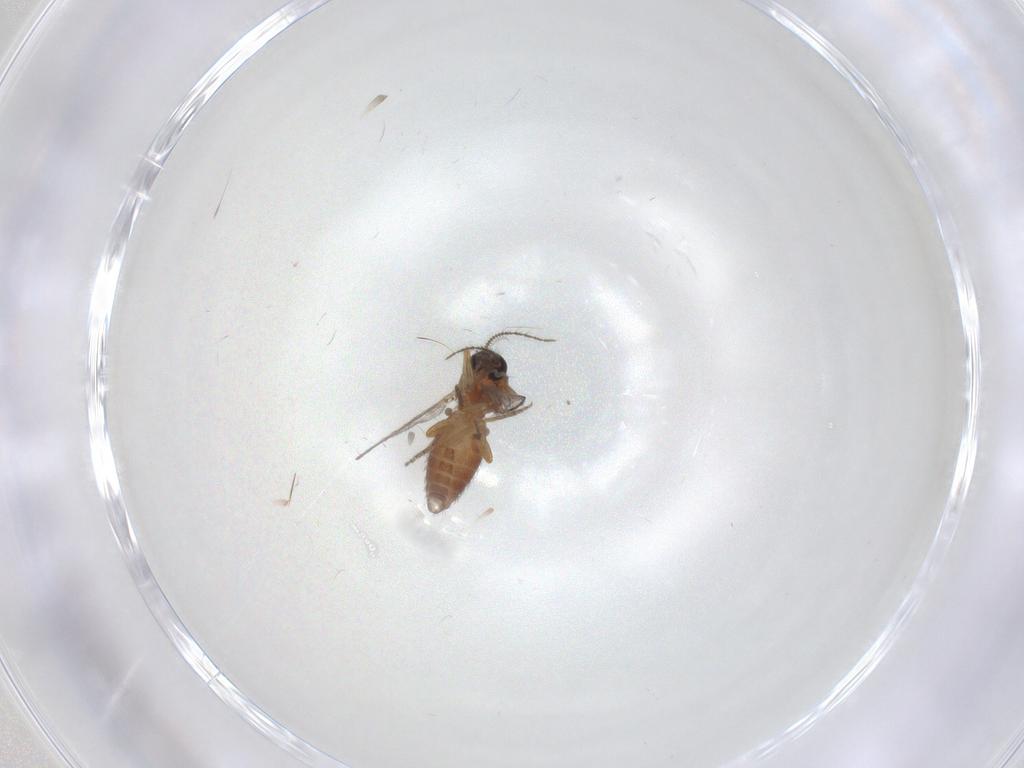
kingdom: Animalia
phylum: Arthropoda
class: Insecta
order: Diptera
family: Ceratopogonidae
